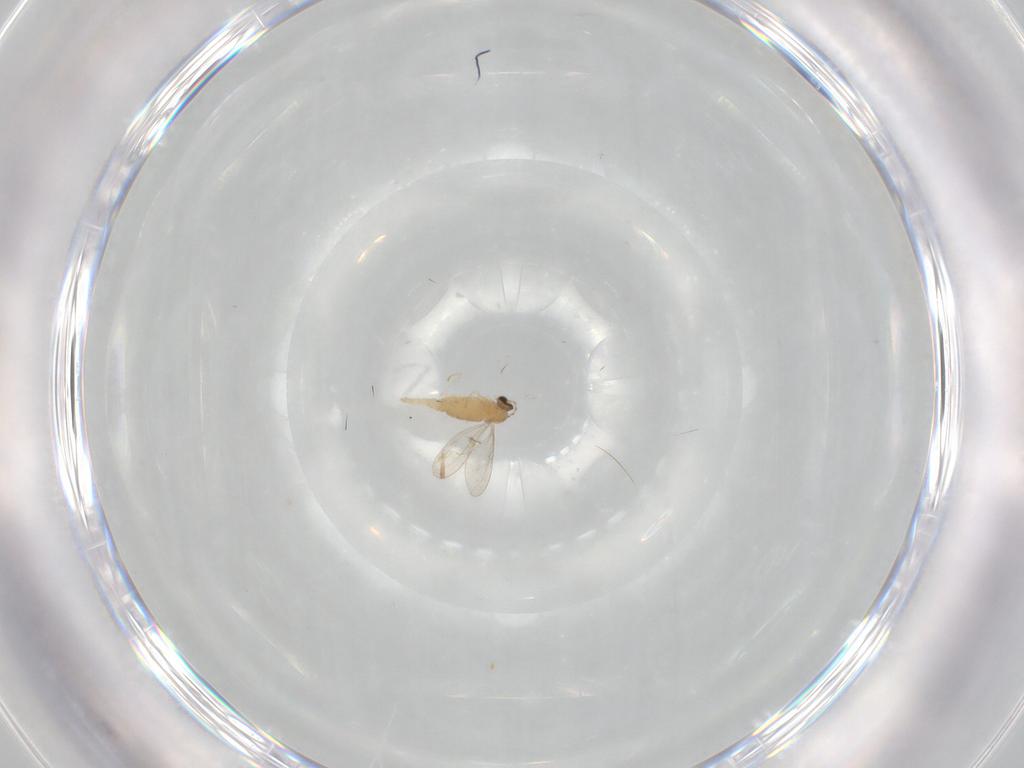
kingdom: Animalia
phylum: Arthropoda
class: Insecta
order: Diptera
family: Cecidomyiidae
